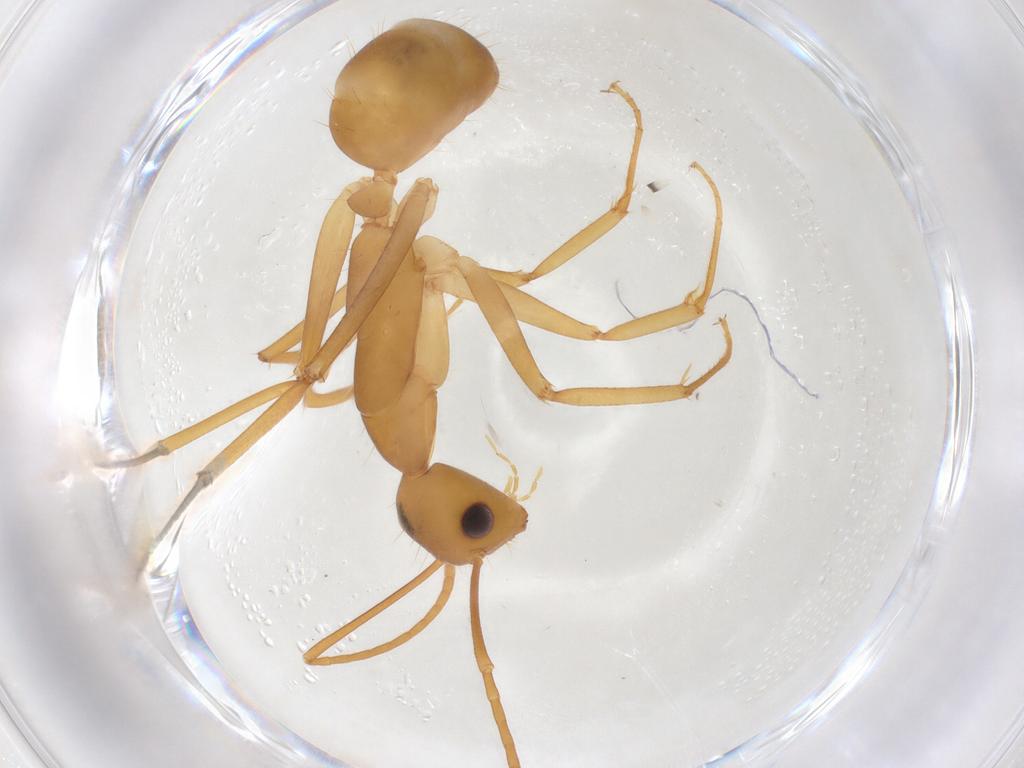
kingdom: Animalia
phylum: Arthropoda
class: Insecta
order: Hymenoptera
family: Formicidae
